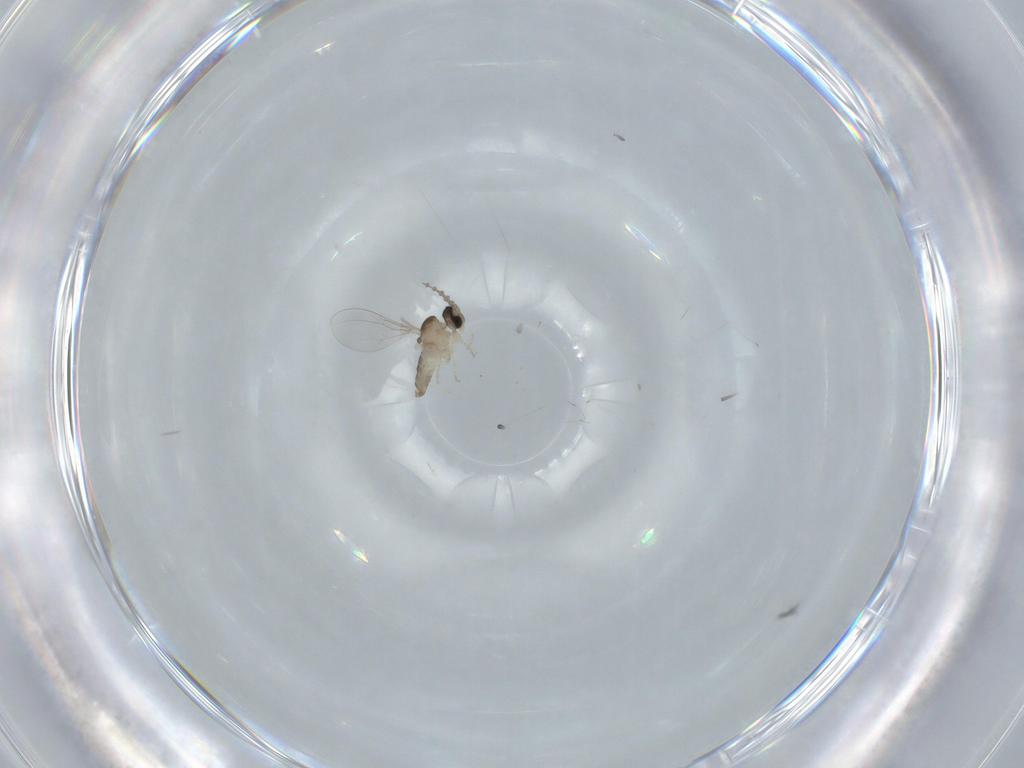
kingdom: Animalia
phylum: Arthropoda
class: Insecta
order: Diptera
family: Cecidomyiidae
